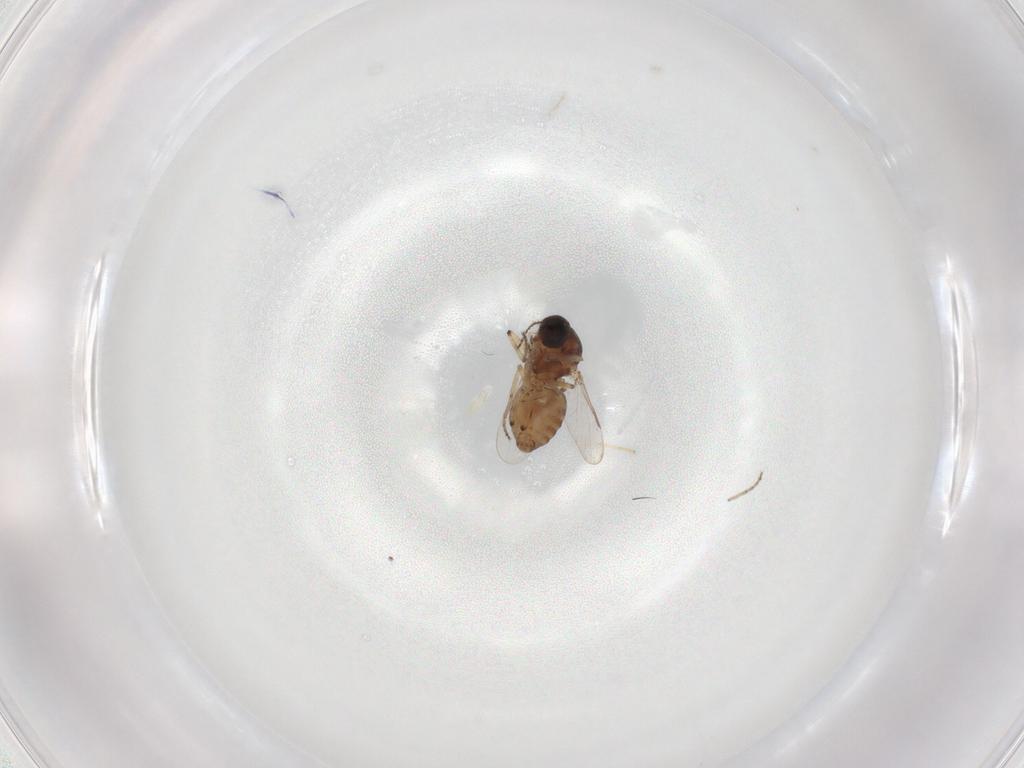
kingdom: Animalia
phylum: Arthropoda
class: Insecta
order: Diptera
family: Ceratopogonidae
